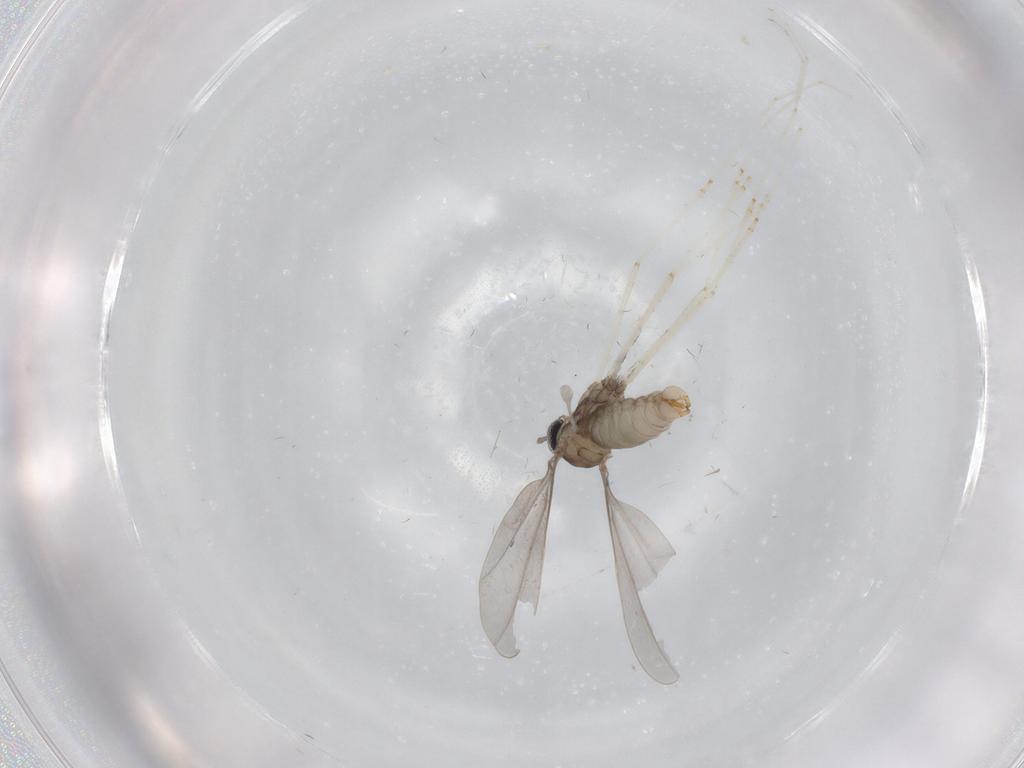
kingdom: Animalia
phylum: Arthropoda
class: Insecta
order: Diptera
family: Cecidomyiidae
